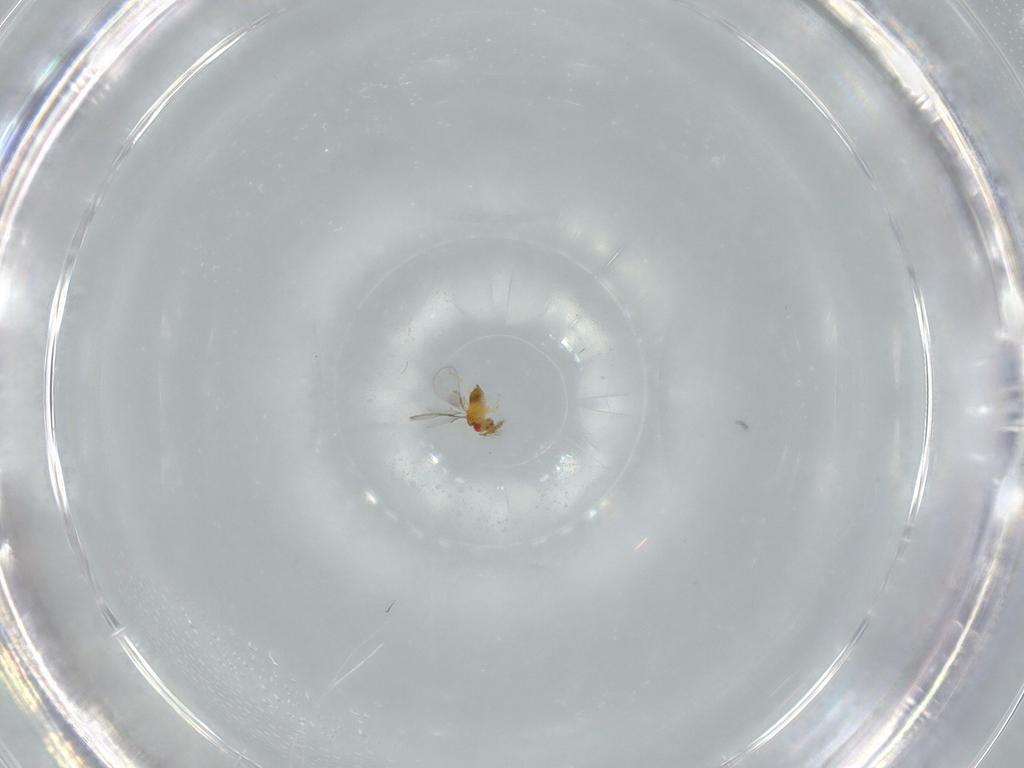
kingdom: Animalia
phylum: Arthropoda
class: Insecta
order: Hymenoptera
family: Trichogrammatidae
